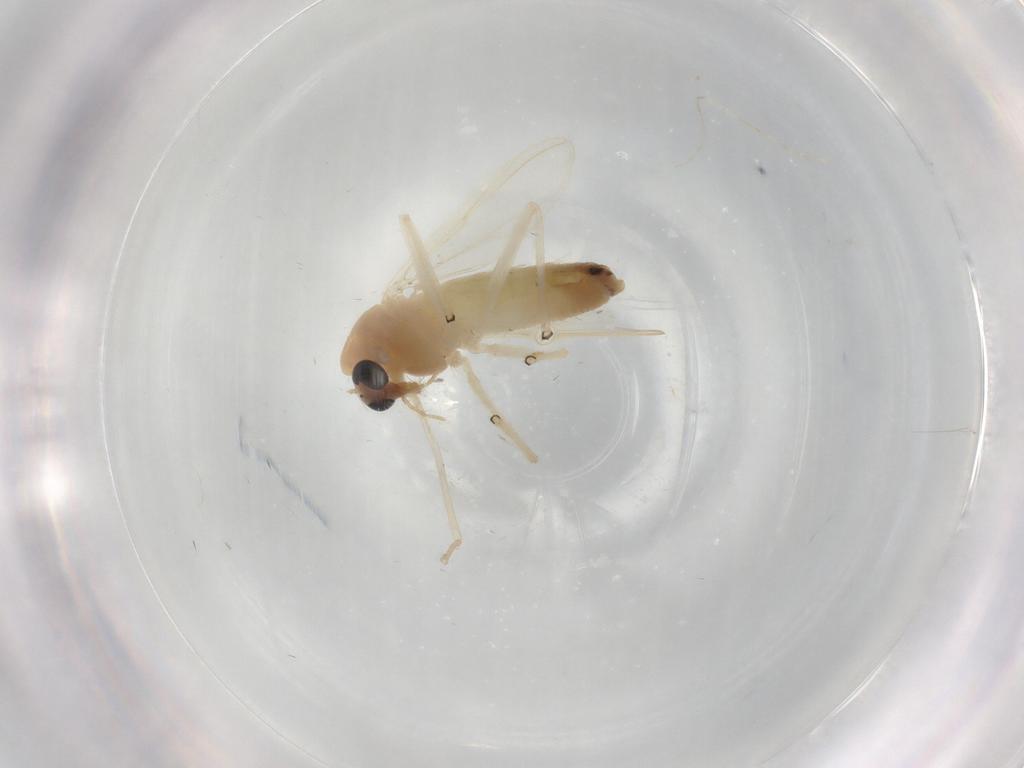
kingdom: Animalia
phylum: Arthropoda
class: Insecta
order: Diptera
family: Chironomidae
